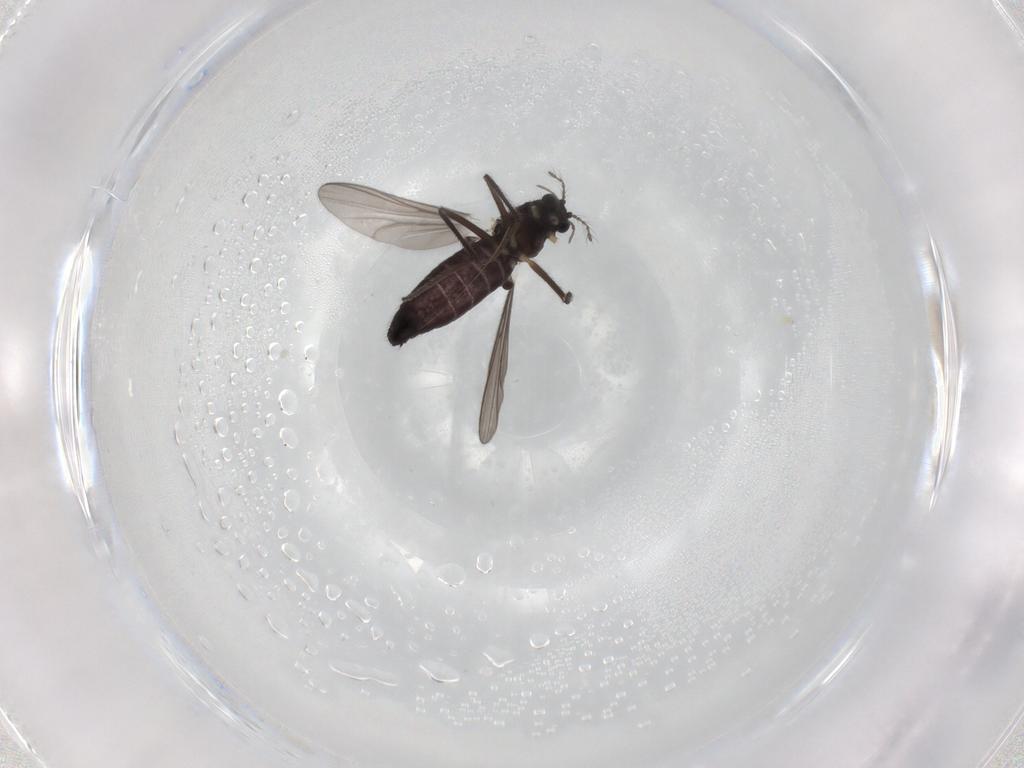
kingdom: Animalia
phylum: Arthropoda
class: Insecta
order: Diptera
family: Chironomidae
